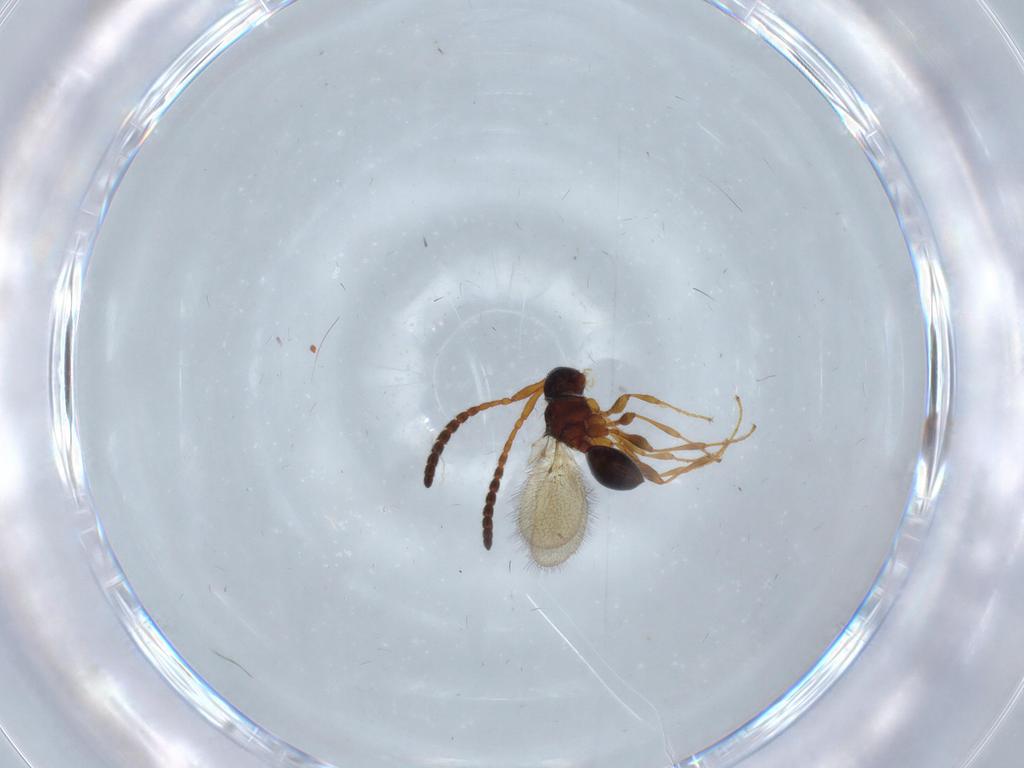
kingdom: Animalia
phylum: Arthropoda
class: Insecta
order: Hymenoptera
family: Diapriidae
